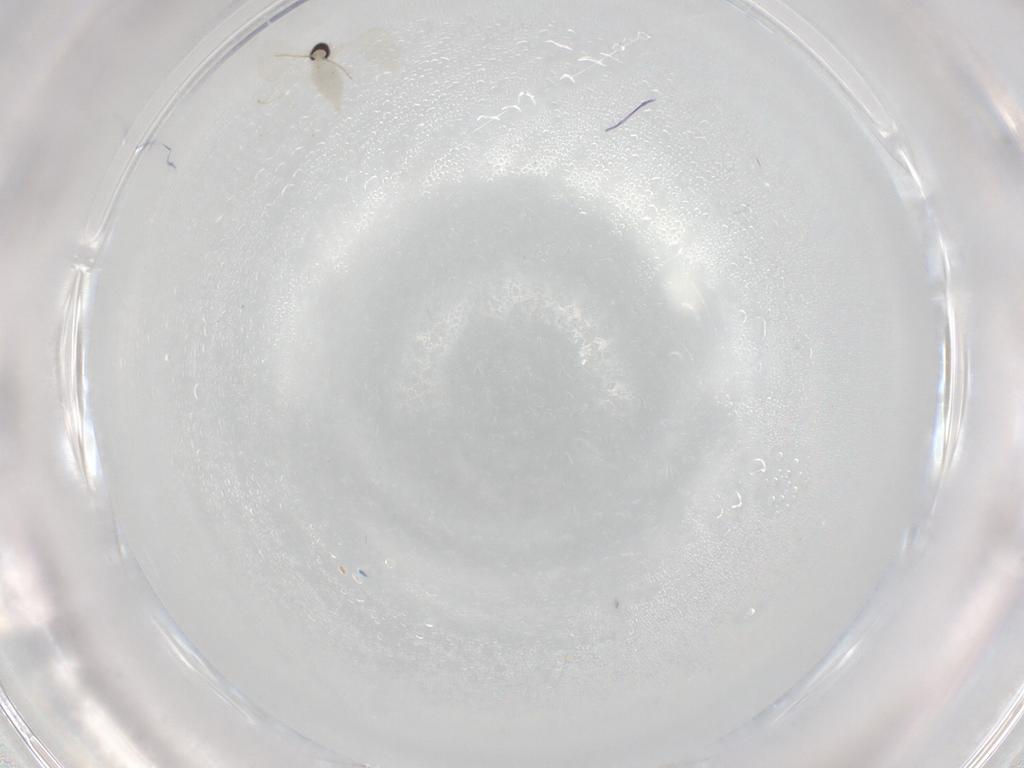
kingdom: Animalia
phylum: Arthropoda
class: Insecta
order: Diptera
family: Cecidomyiidae
